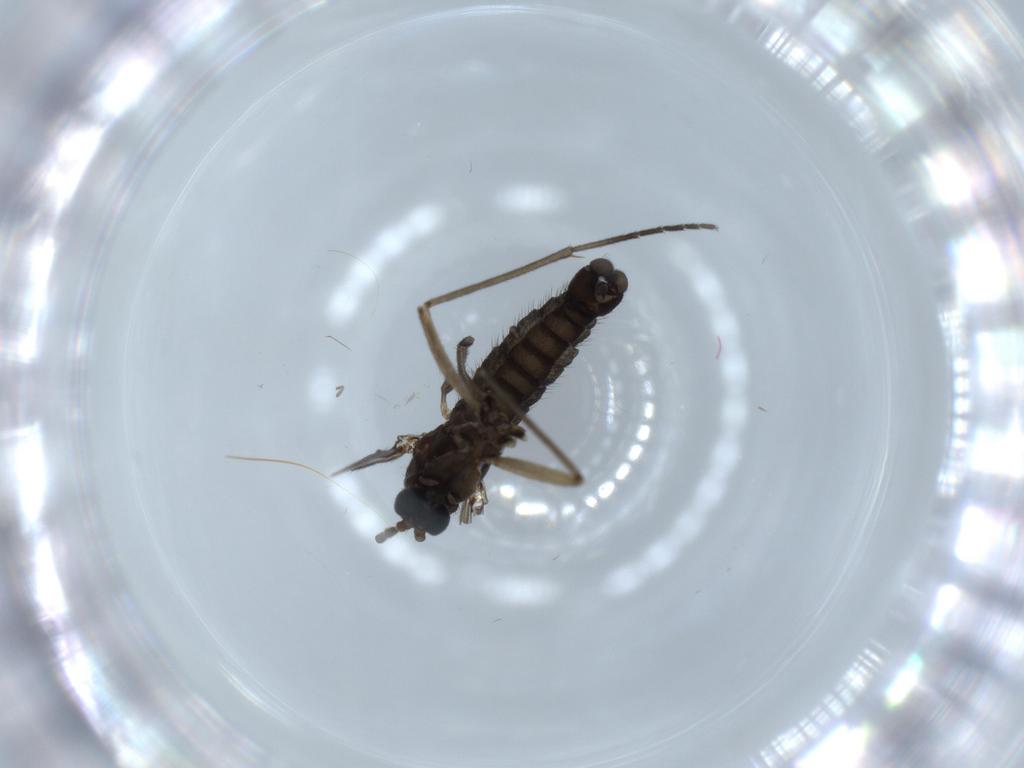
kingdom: Animalia
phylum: Arthropoda
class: Insecta
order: Diptera
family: Sciaridae
